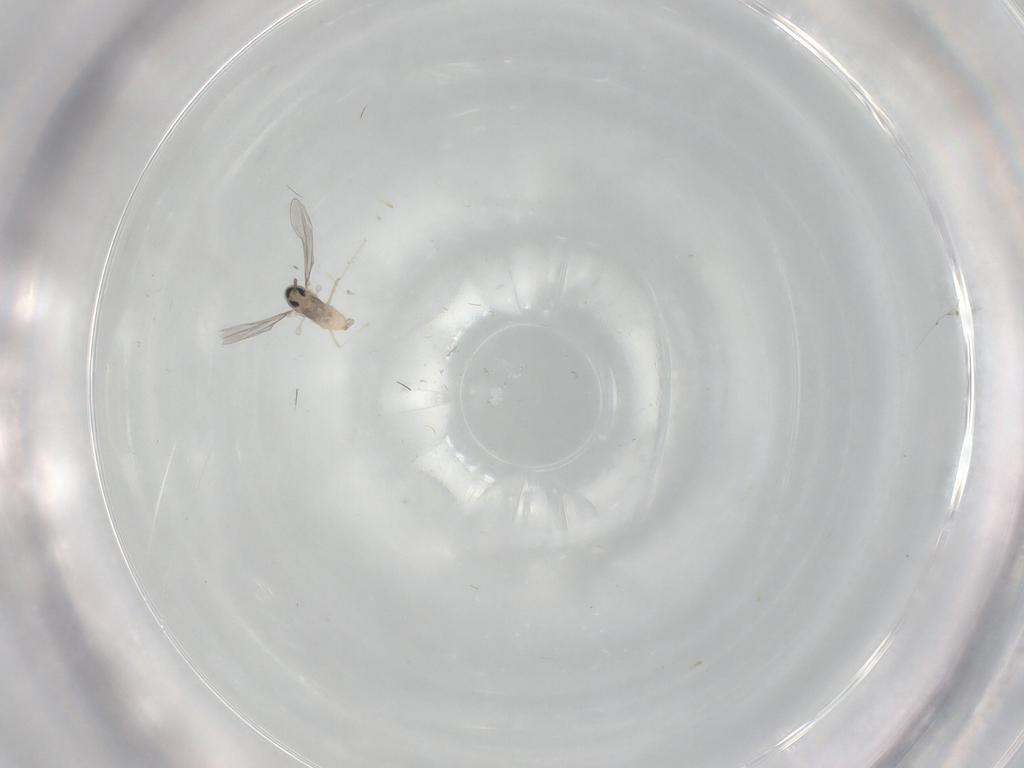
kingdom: Animalia
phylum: Arthropoda
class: Insecta
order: Diptera
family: Cecidomyiidae
